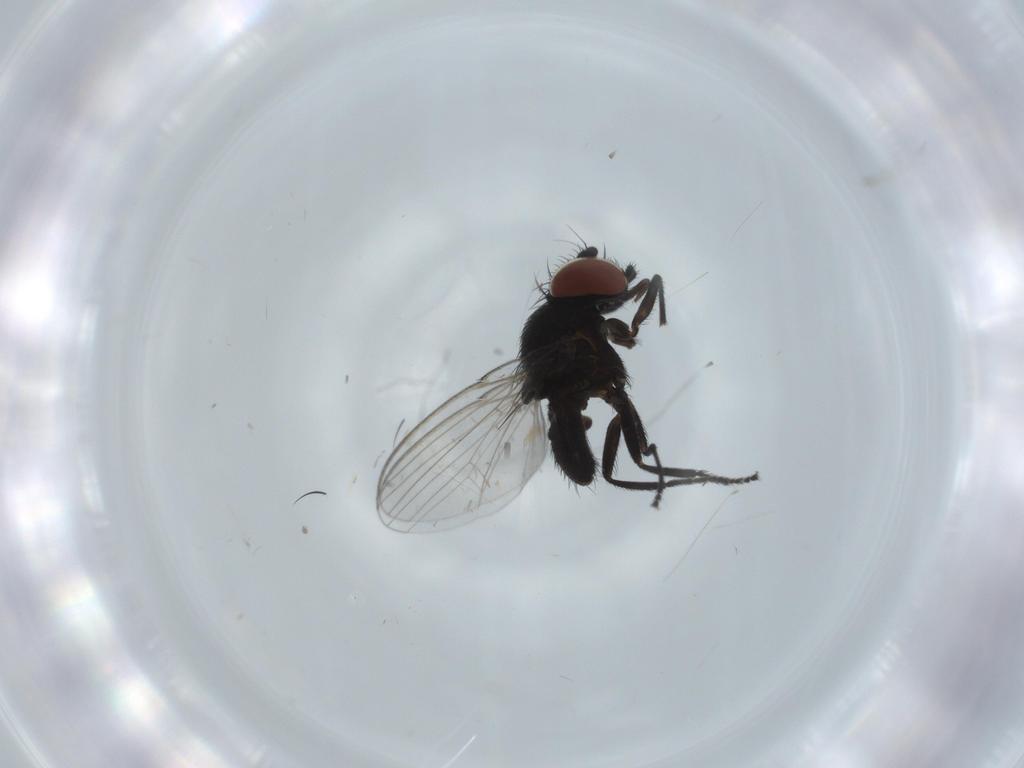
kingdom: Animalia
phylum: Arthropoda
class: Insecta
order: Diptera
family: Milichiidae
